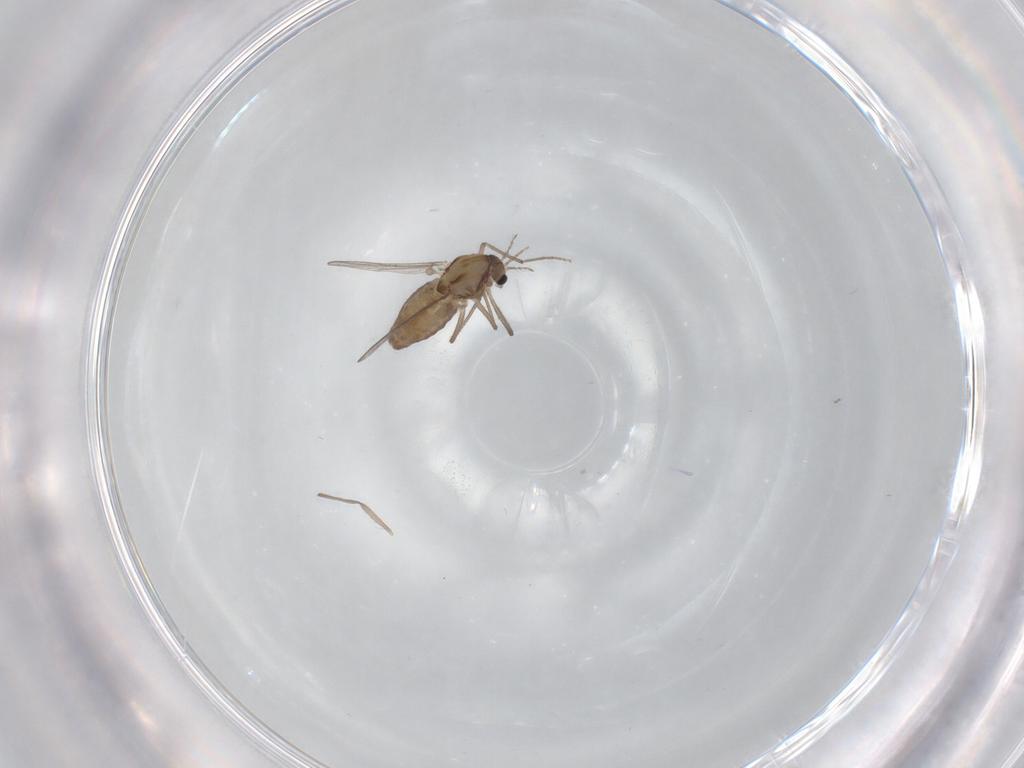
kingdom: Animalia
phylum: Arthropoda
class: Insecta
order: Diptera
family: Chironomidae
